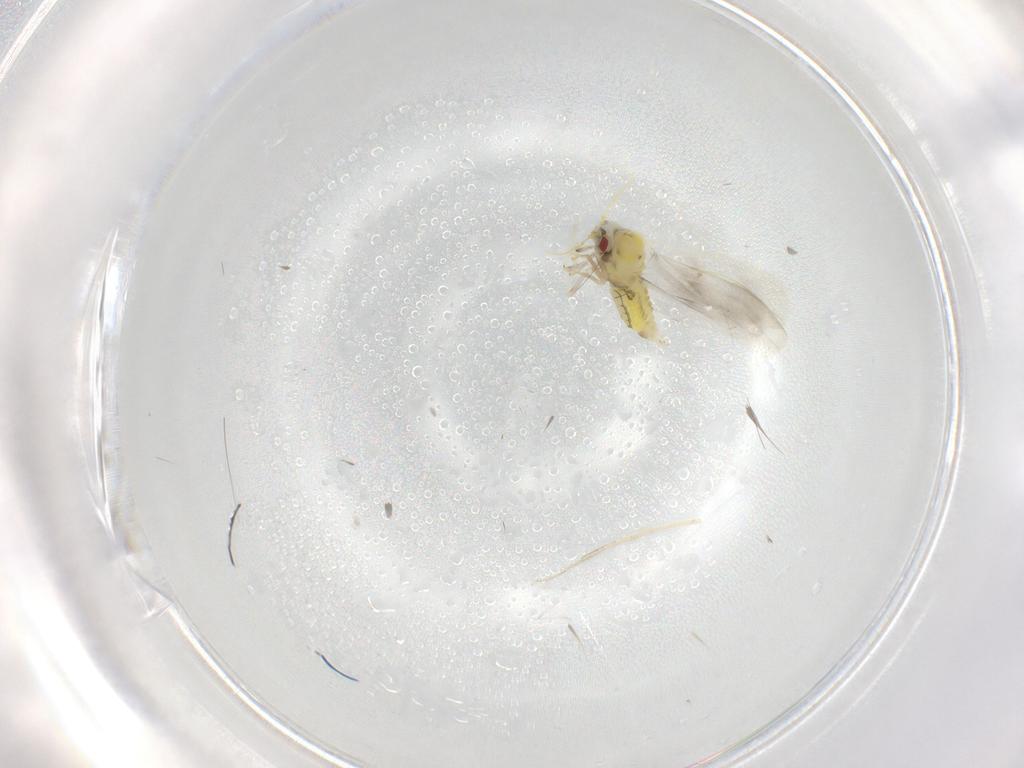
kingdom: Animalia
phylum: Arthropoda
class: Insecta
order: Hemiptera
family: Aleyrodidae
